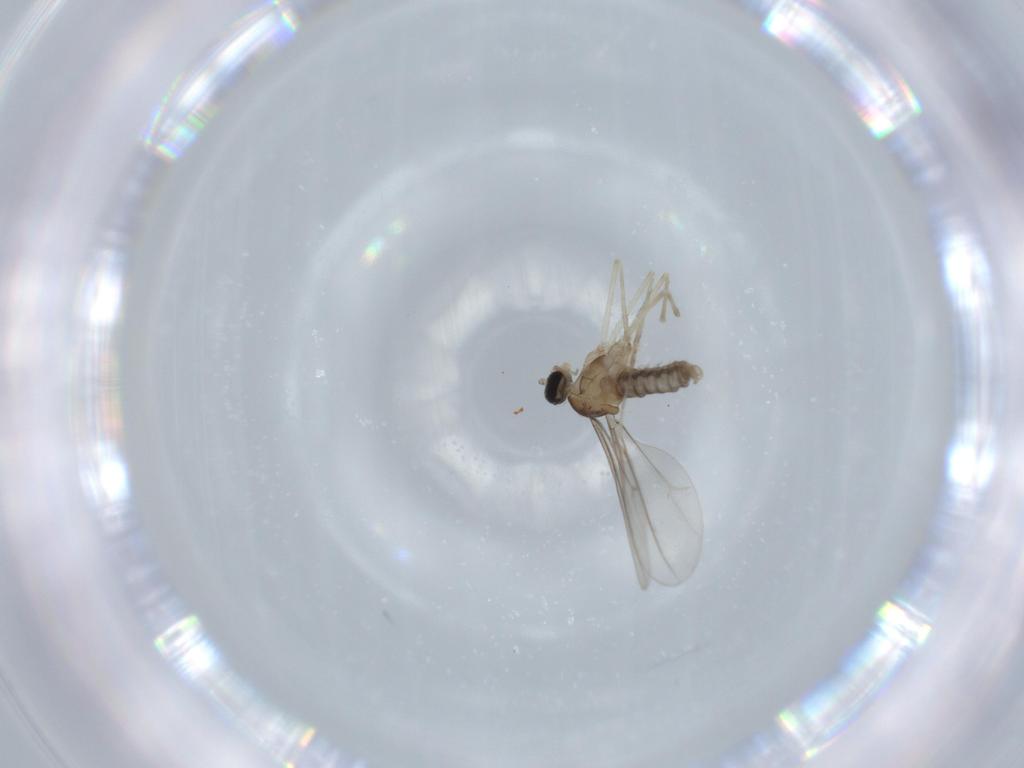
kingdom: Animalia
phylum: Arthropoda
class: Insecta
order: Diptera
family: Cecidomyiidae
